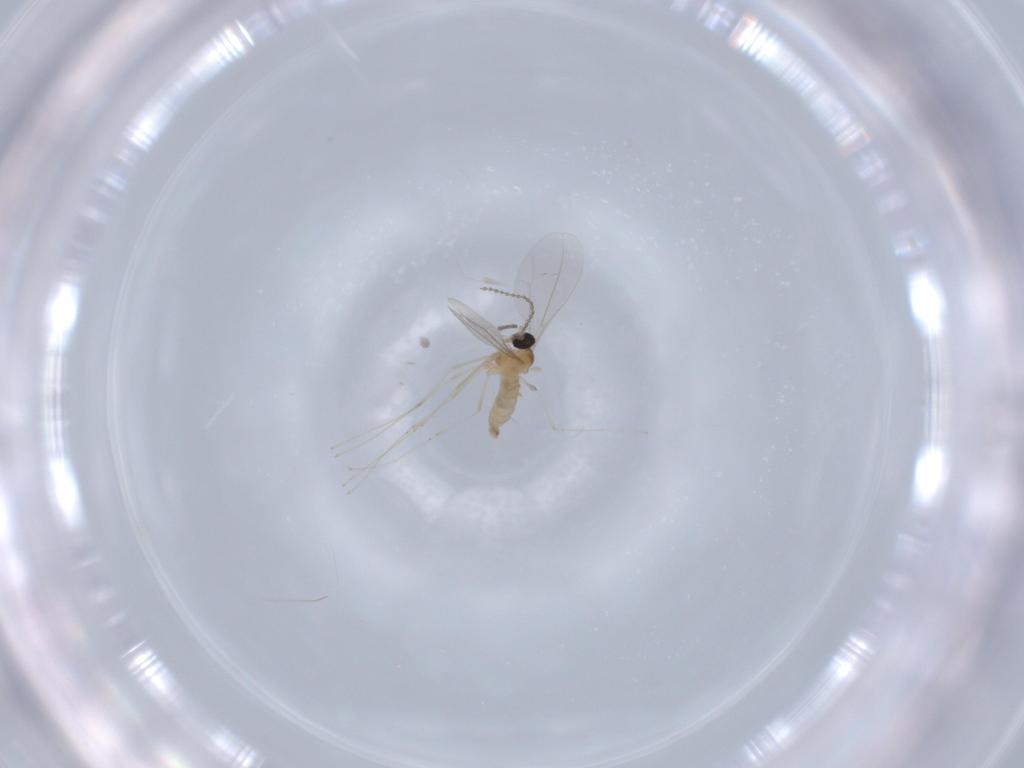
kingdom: Animalia
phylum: Arthropoda
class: Insecta
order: Diptera
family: Cecidomyiidae
